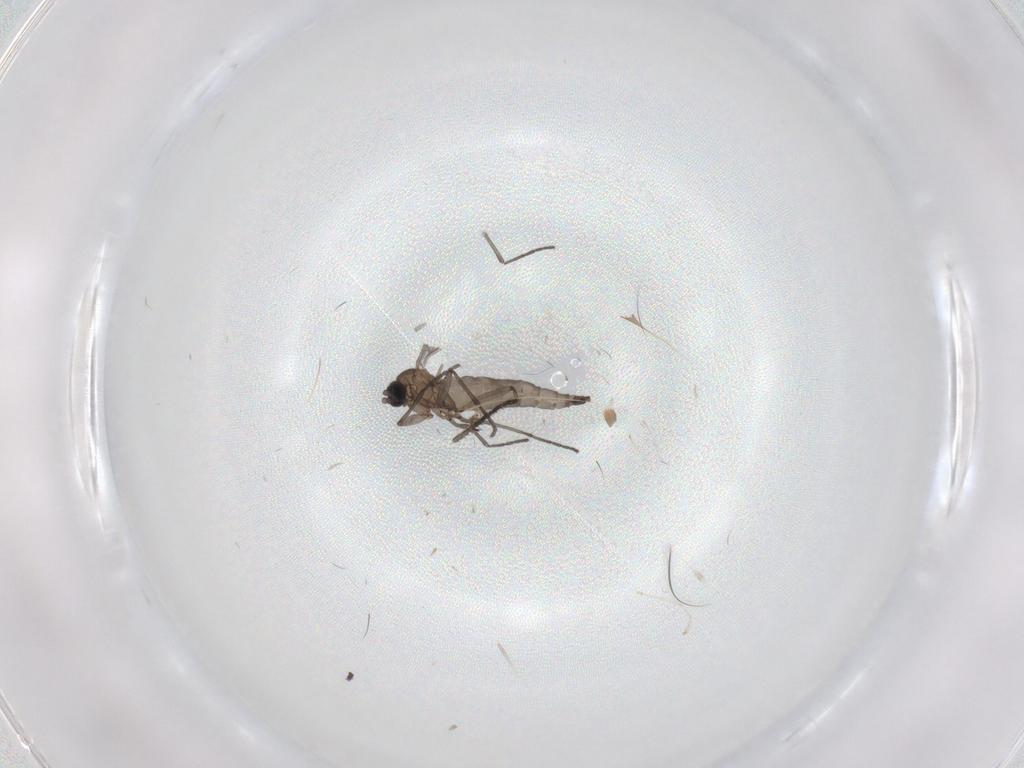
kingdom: Animalia
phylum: Arthropoda
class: Insecta
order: Diptera
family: Sciaridae
